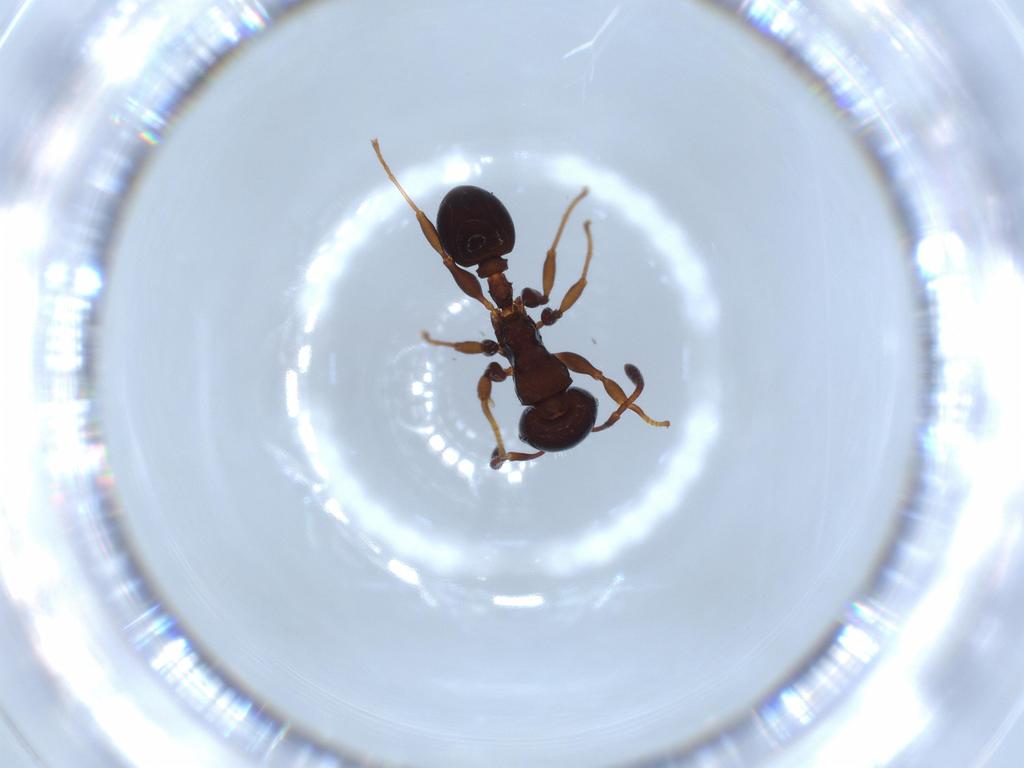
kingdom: Animalia
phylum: Arthropoda
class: Insecta
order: Hymenoptera
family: Formicidae
